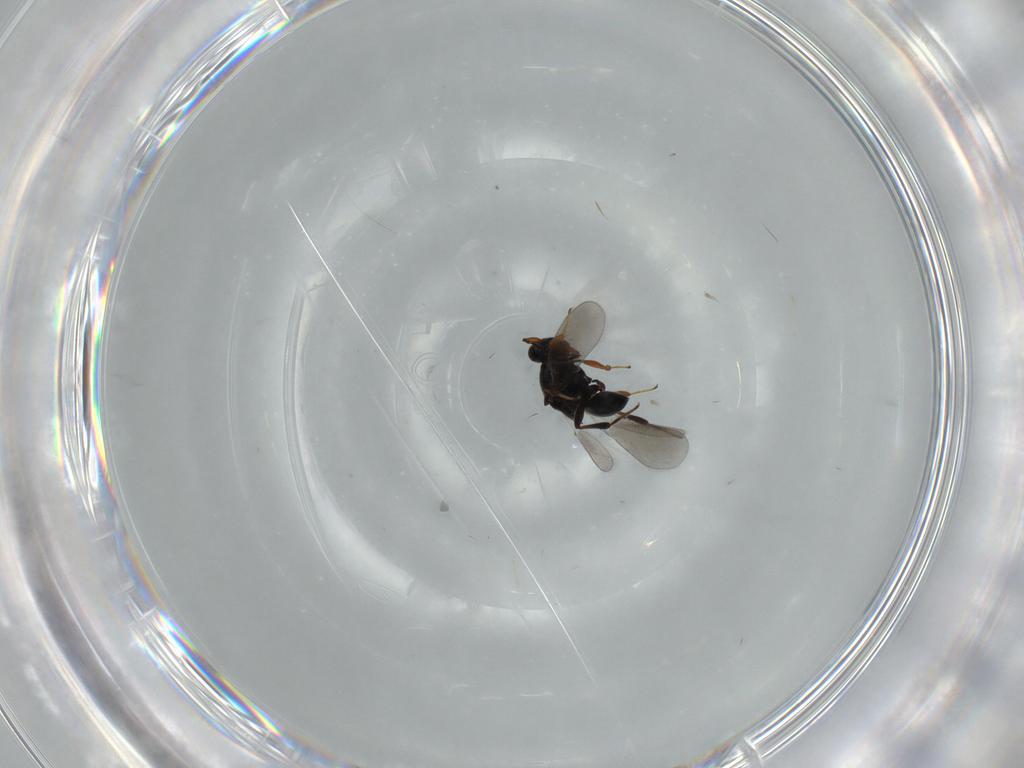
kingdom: Animalia
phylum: Arthropoda
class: Insecta
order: Hymenoptera
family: Platygastridae
